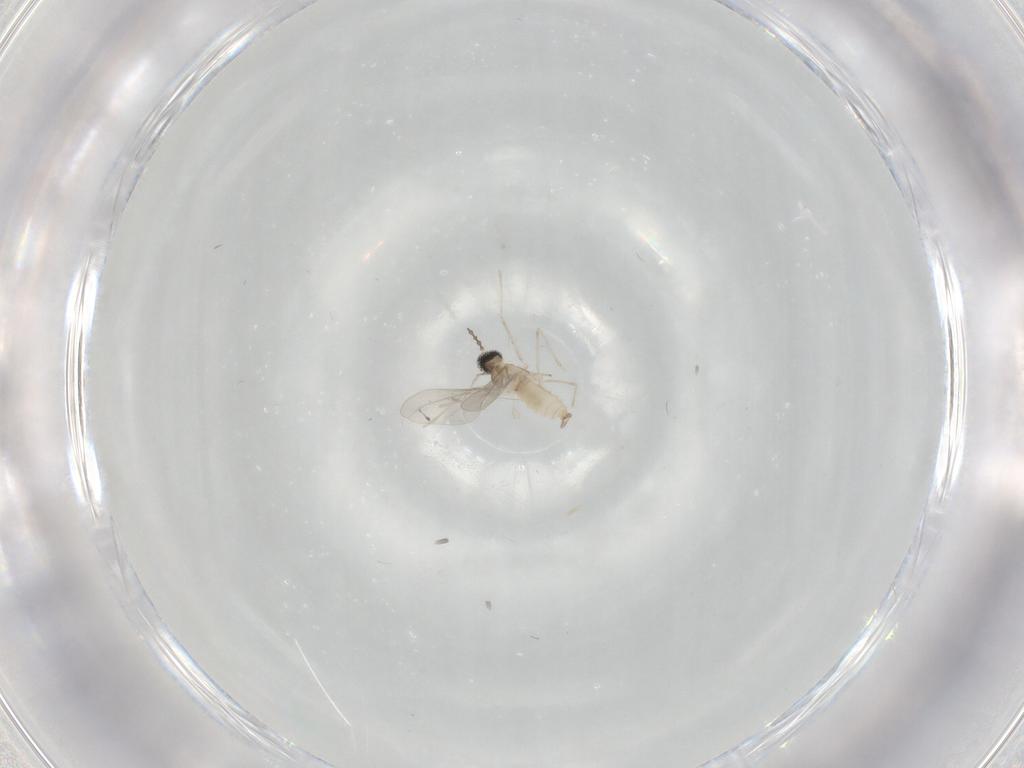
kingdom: Animalia
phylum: Arthropoda
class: Insecta
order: Diptera
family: Cecidomyiidae
